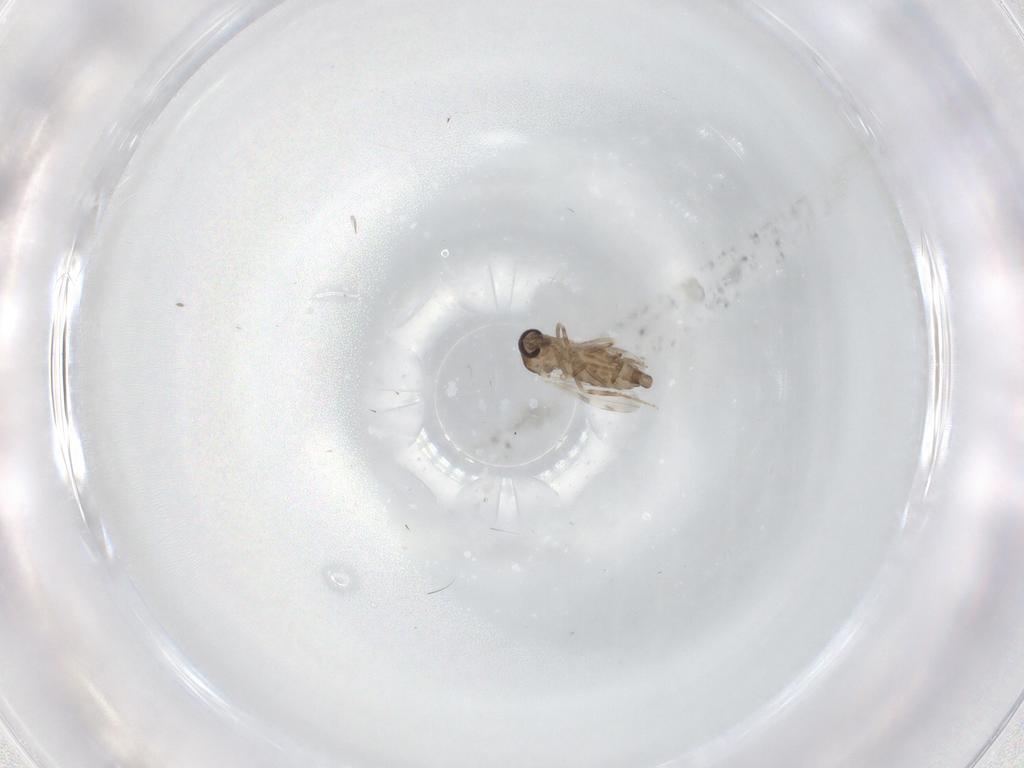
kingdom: Animalia
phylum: Arthropoda
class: Insecta
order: Diptera
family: Ceratopogonidae
